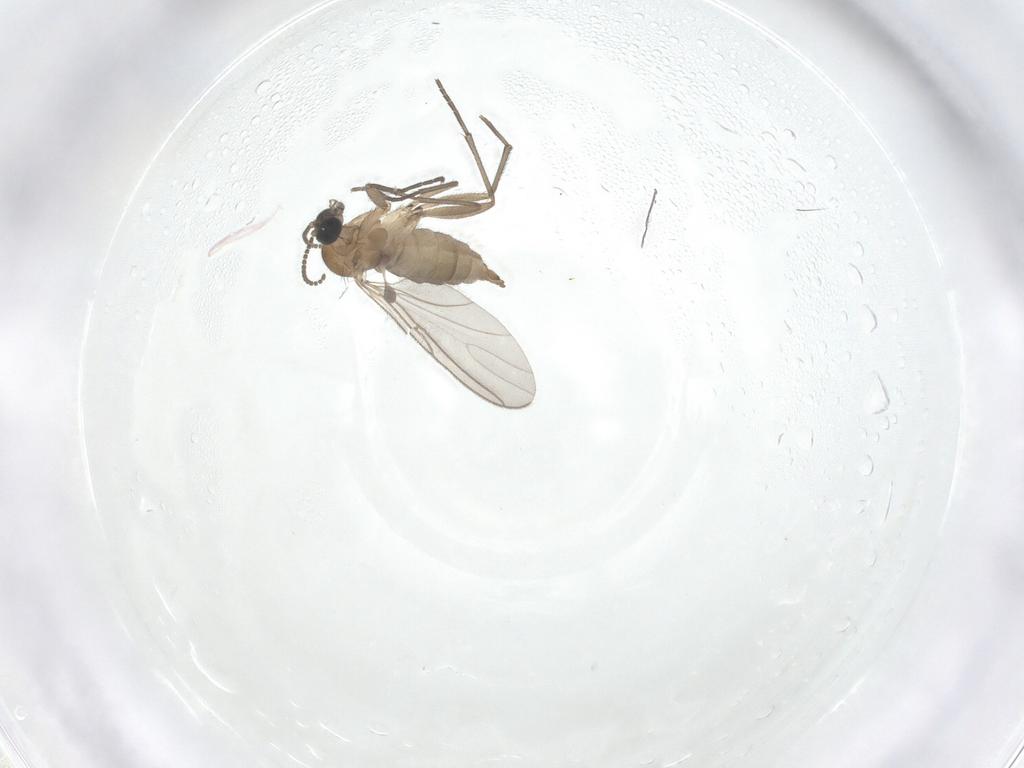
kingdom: Animalia
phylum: Arthropoda
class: Insecta
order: Diptera
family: Sciaridae
